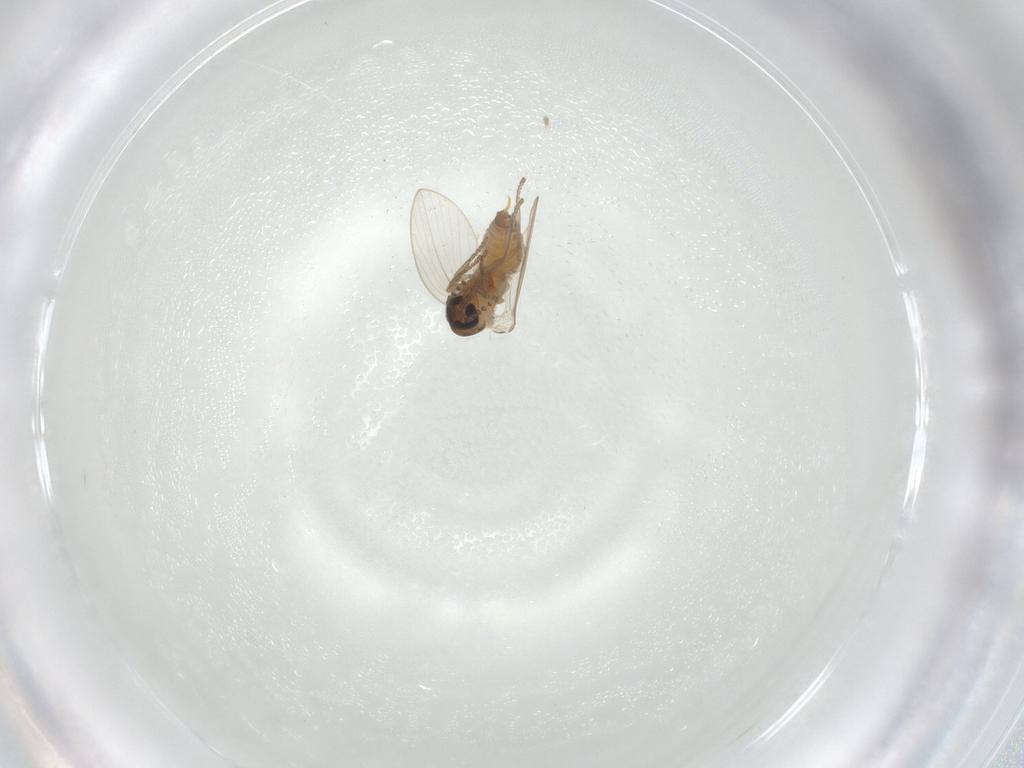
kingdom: Animalia
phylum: Arthropoda
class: Insecta
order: Diptera
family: Psychodidae
